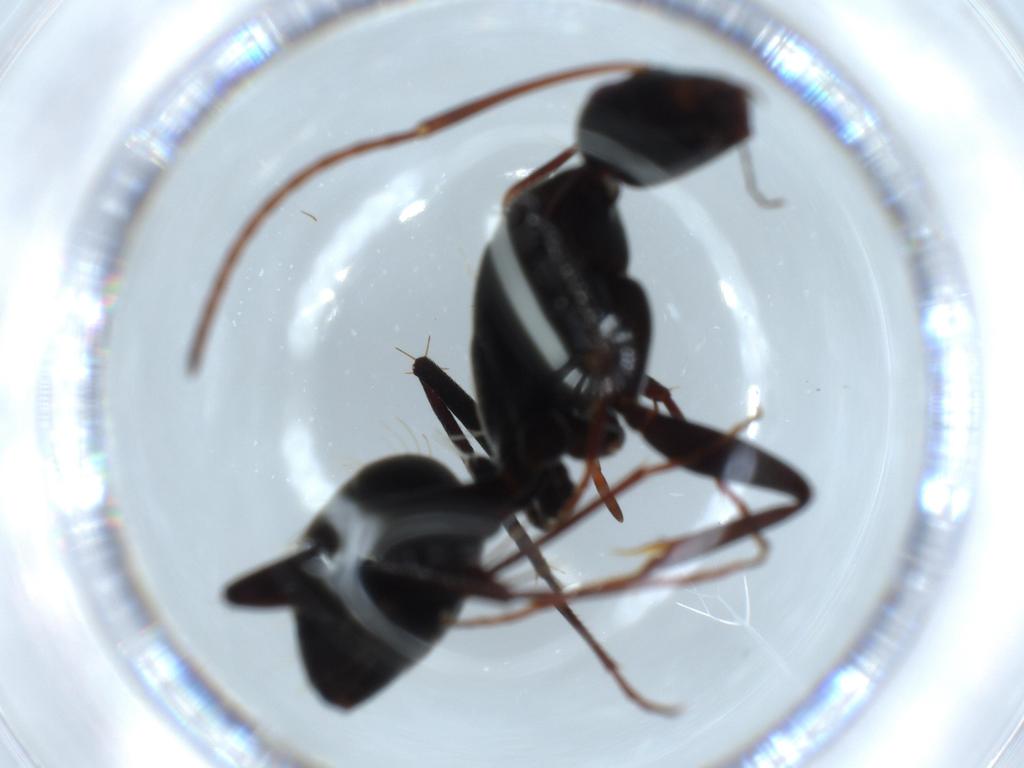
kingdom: Animalia
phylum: Arthropoda
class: Insecta
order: Hymenoptera
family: Formicidae
